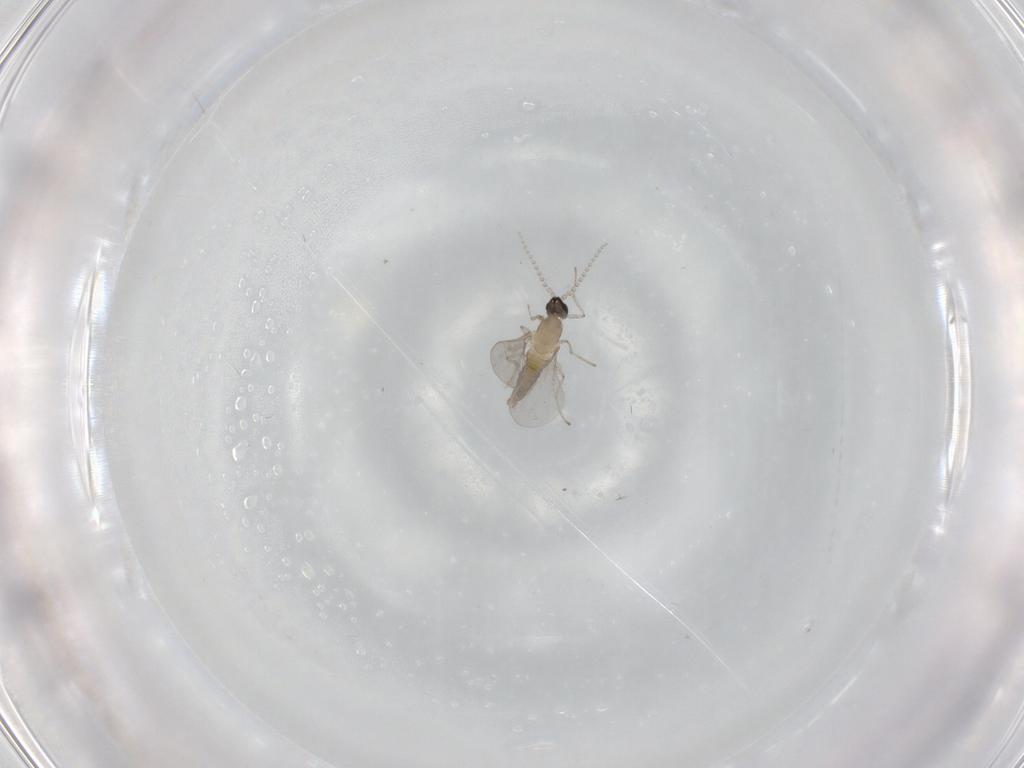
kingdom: Animalia
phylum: Arthropoda
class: Insecta
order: Diptera
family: Cecidomyiidae
